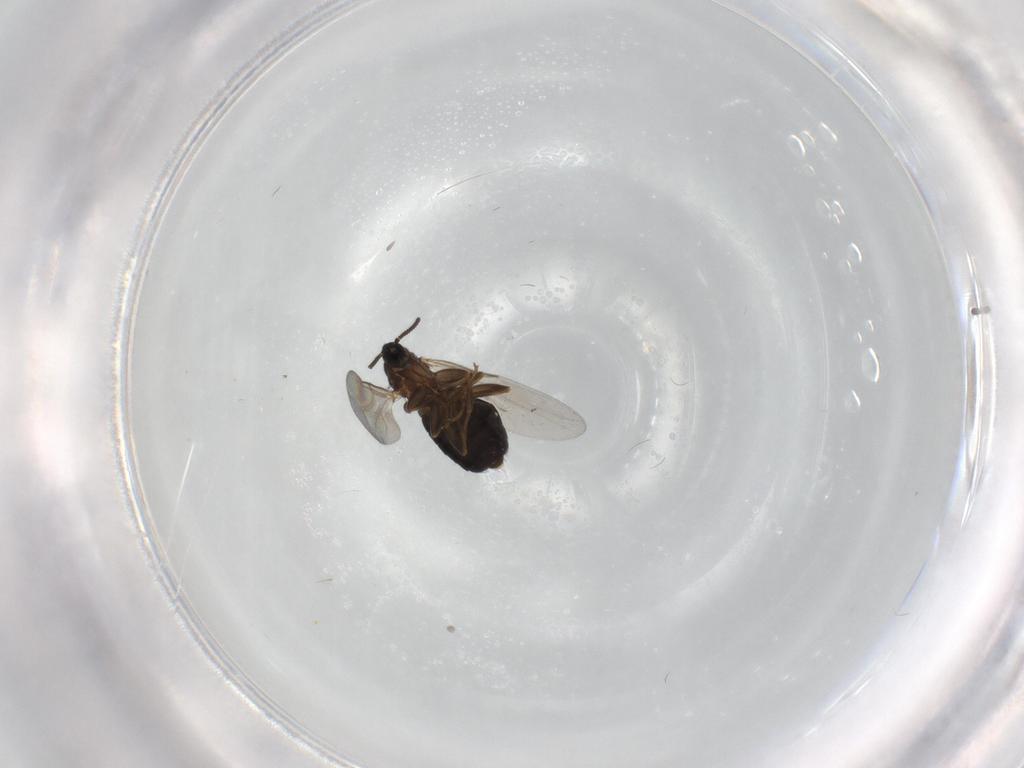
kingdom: Animalia
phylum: Arthropoda
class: Insecta
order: Diptera
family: Scatopsidae
